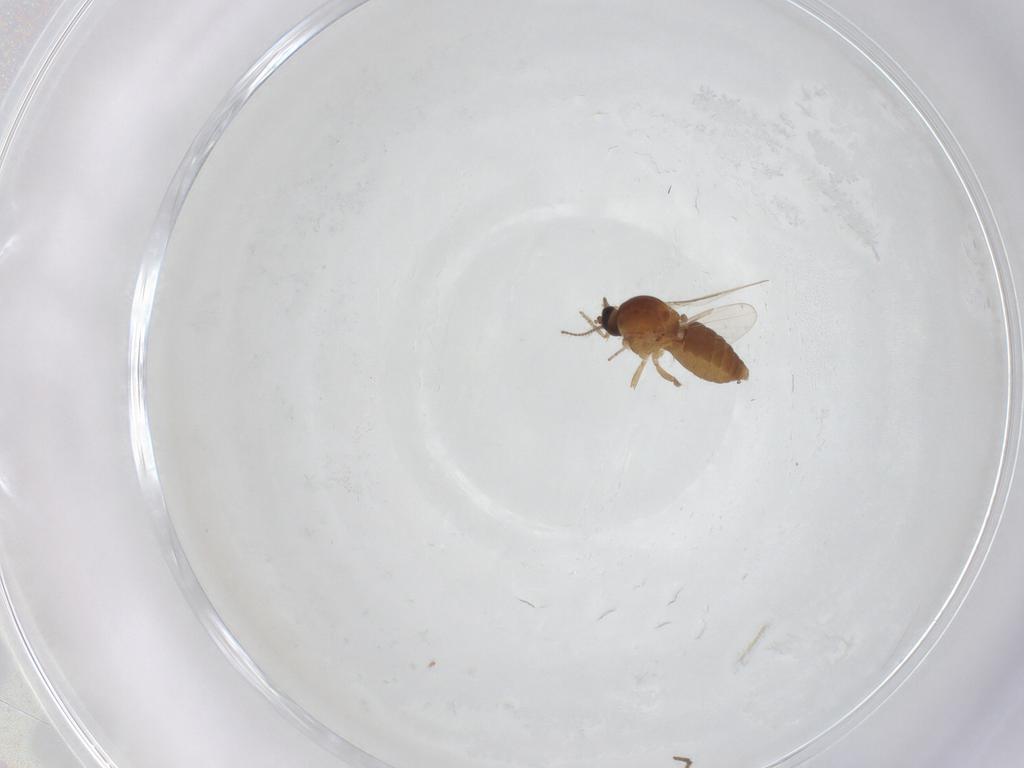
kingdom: Animalia
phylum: Arthropoda
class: Insecta
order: Diptera
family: Ceratopogonidae
